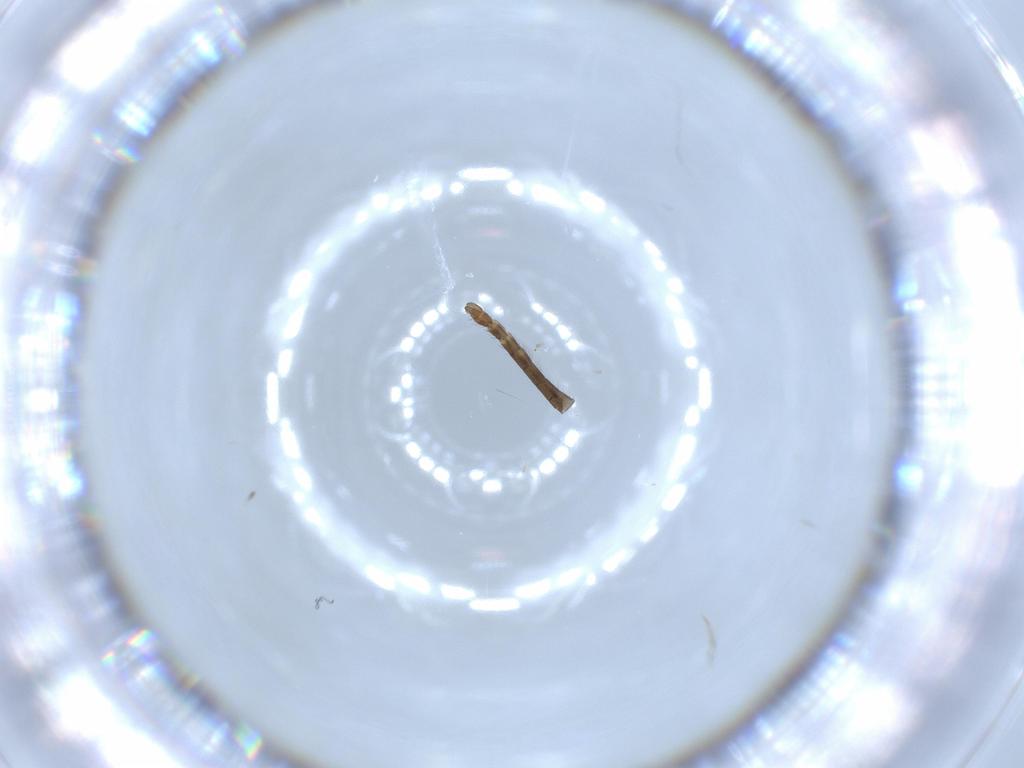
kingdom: Animalia
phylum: Arthropoda
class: Insecta
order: Diptera
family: Chironomidae
